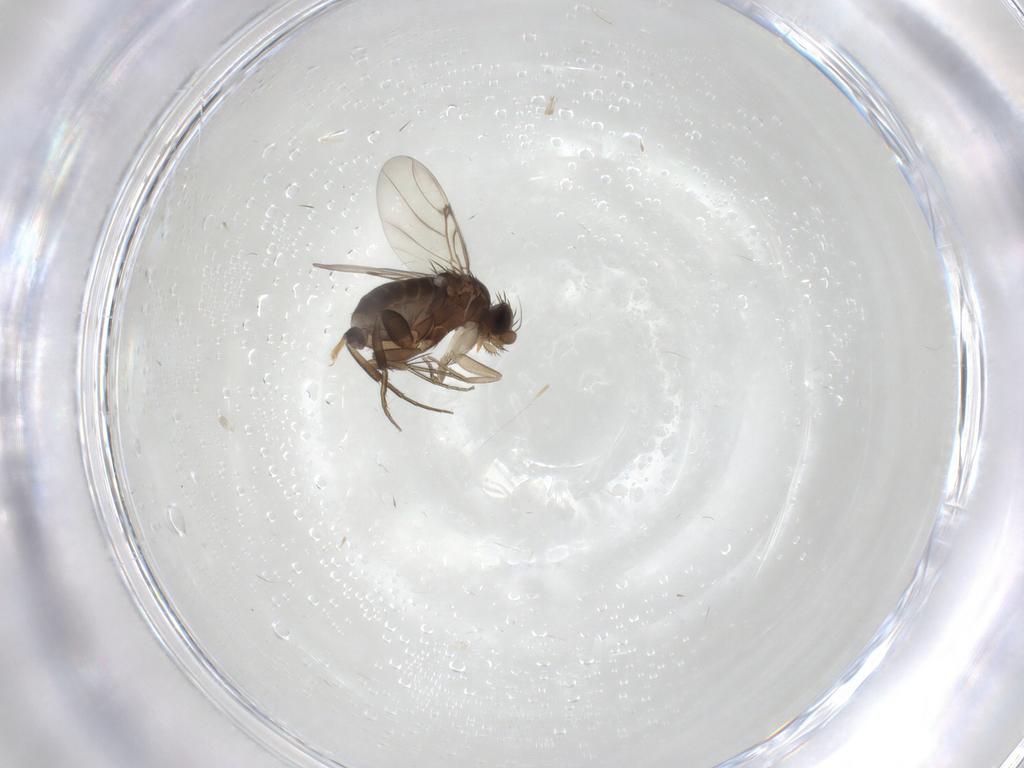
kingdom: Animalia
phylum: Arthropoda
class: Insecta
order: Diptera
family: Phoridae
